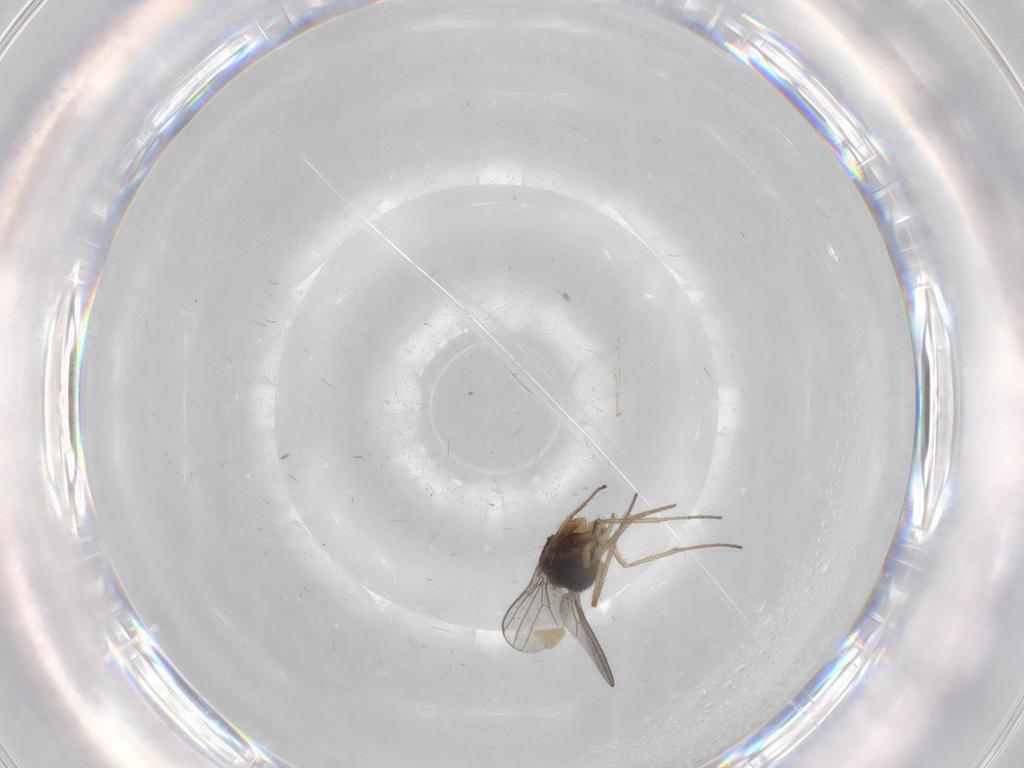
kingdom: Animalia
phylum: Arthropoda
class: Insecta
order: Diptera
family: Dolichopodidae
